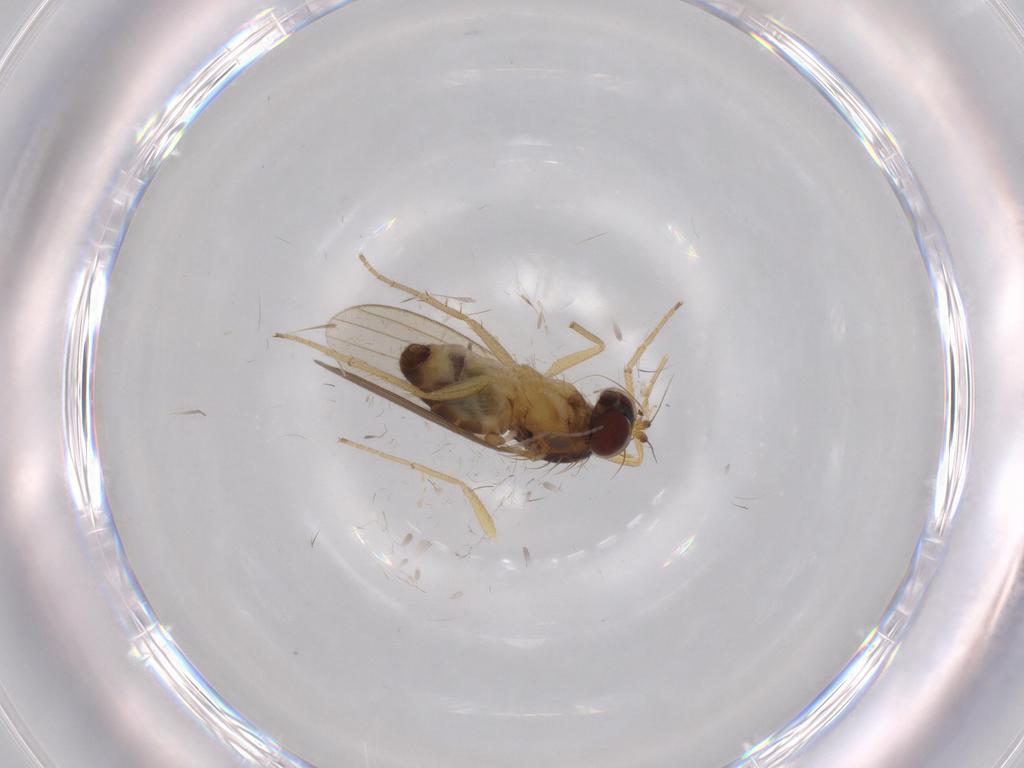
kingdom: Animalia
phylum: Arthropoda
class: Insecta
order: Diptera
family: Dolichopodidae
